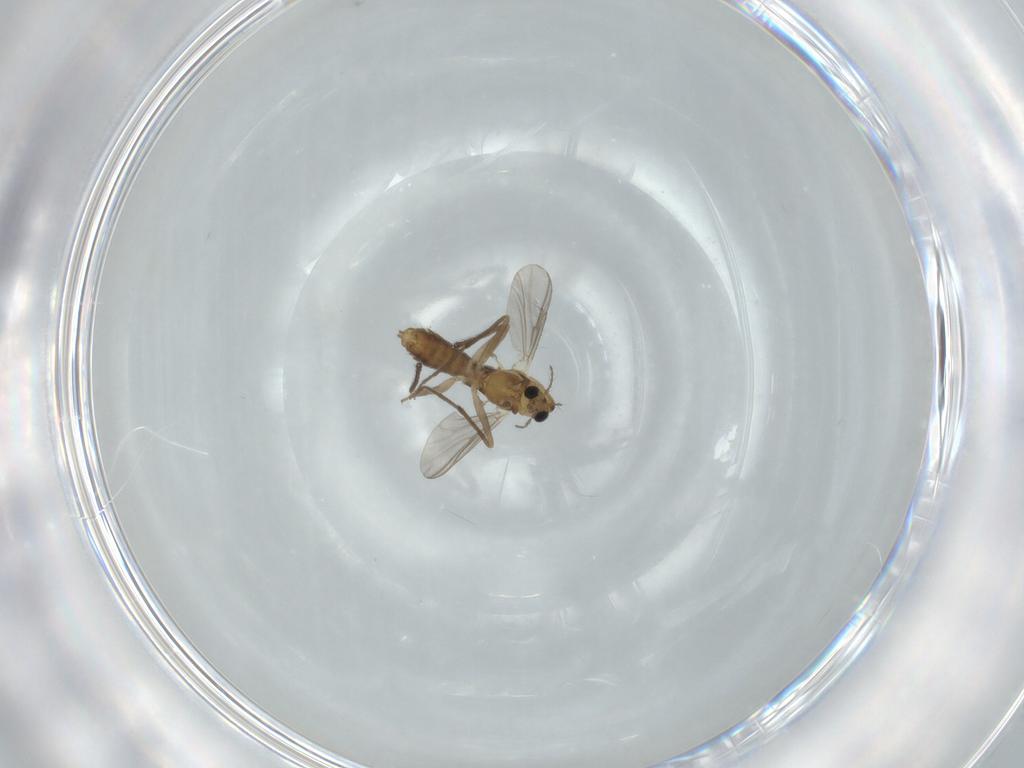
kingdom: Animalia
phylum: Arthropoda
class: Insecta
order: Diptera
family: Chironomidae
